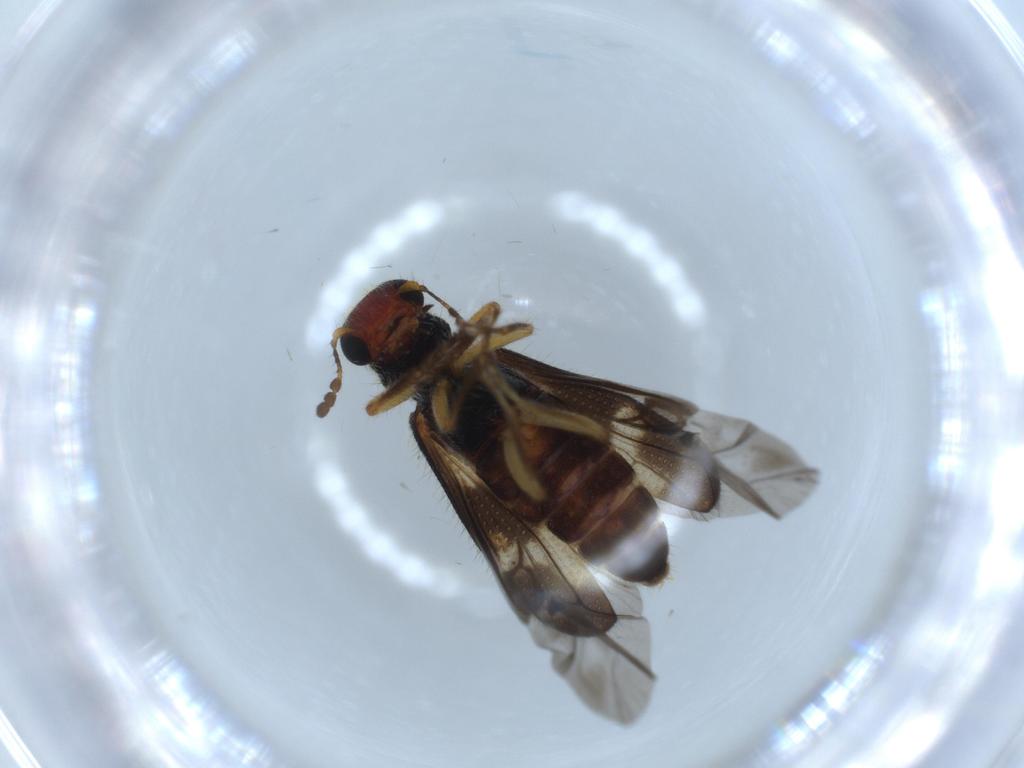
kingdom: Animalia
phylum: Arthropoda
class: Insecta
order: Coleoptera
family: Cleridae
